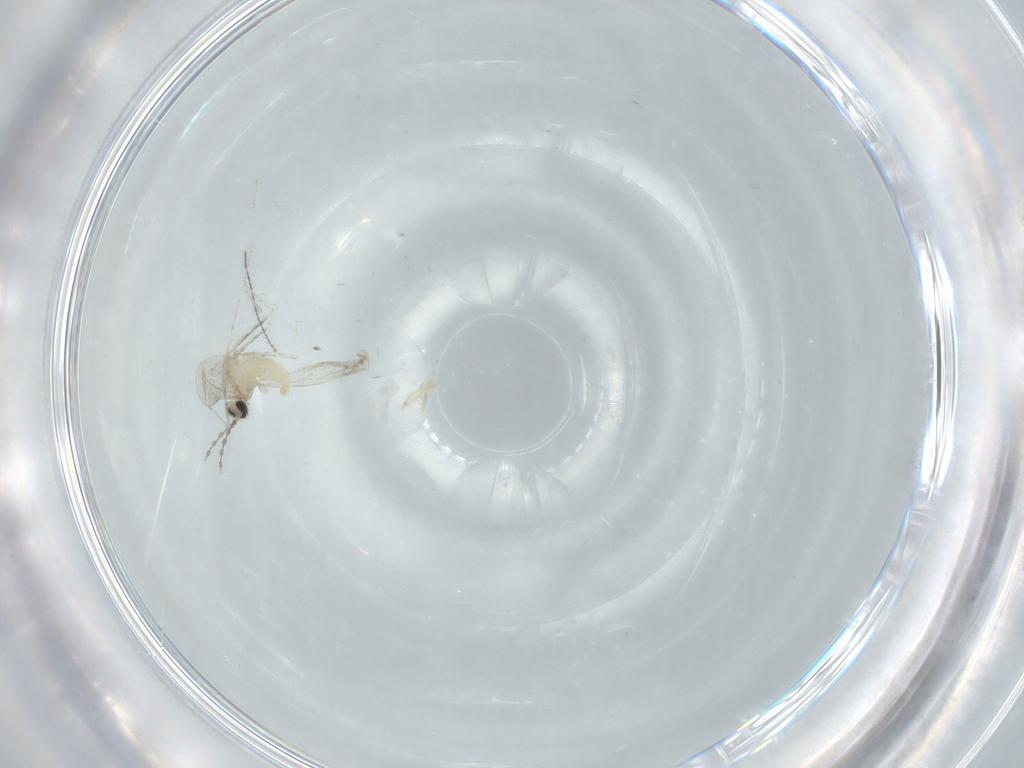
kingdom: Animalia
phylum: Arthropoda
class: Insecta
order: Diptera
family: Cecidomyiidae
